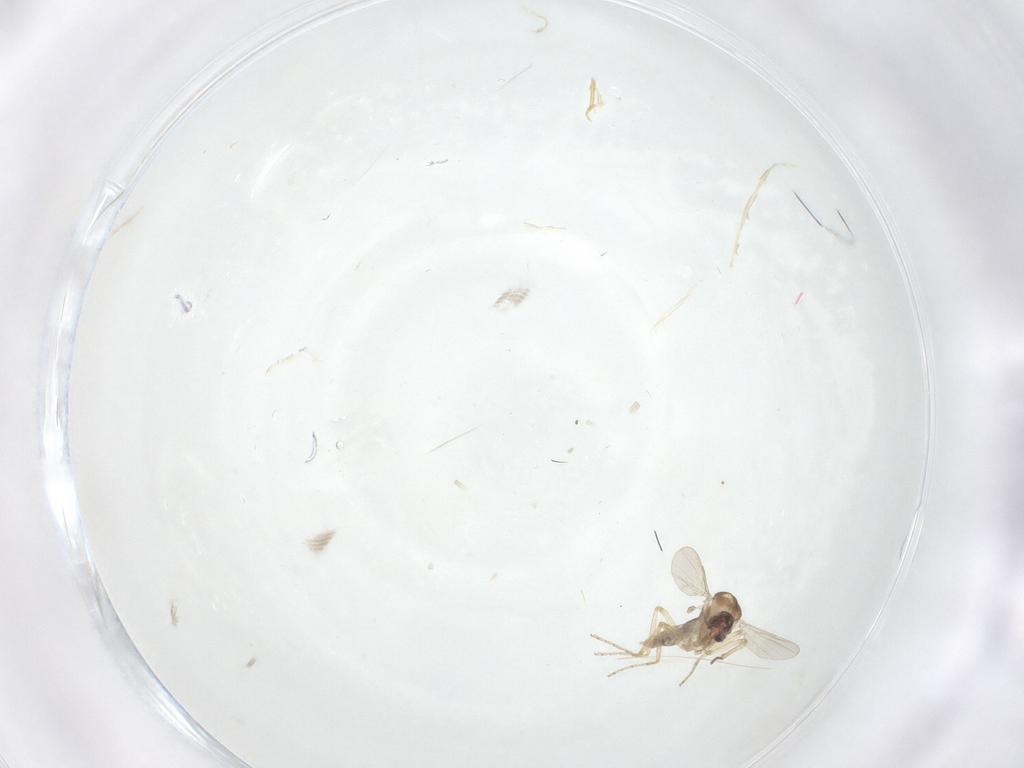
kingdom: Animalia
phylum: Arthropoda
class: Insecta
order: Diptera
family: Ceratopogonidae
